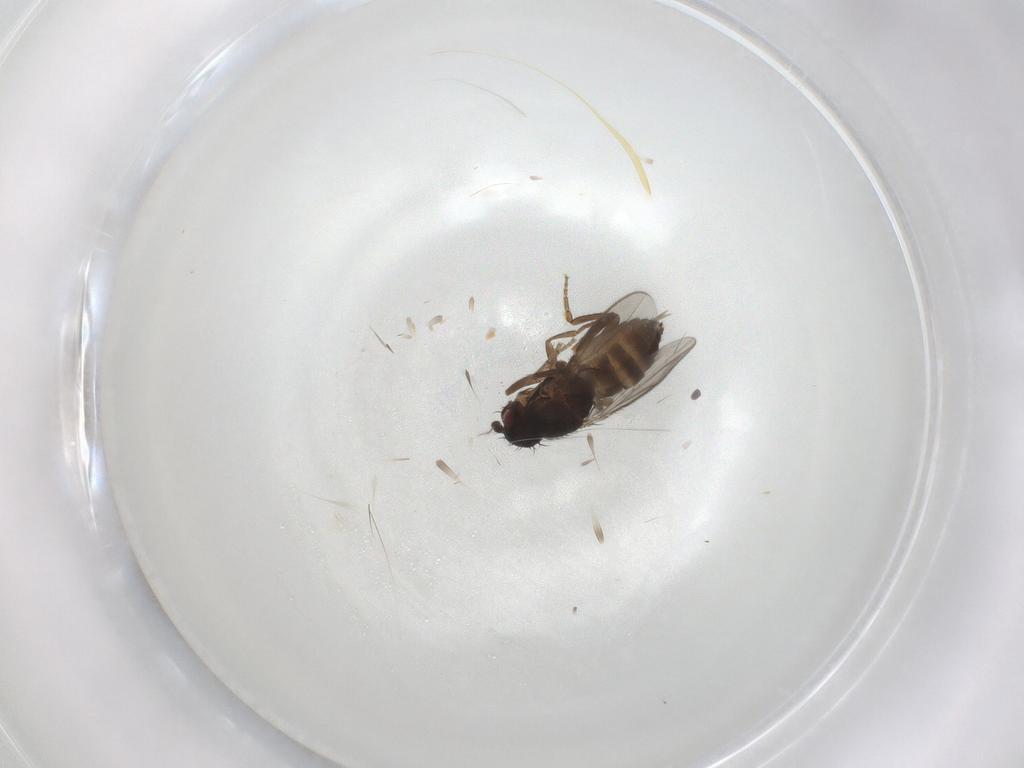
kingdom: Animalia
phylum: Arthropoda
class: Insecta
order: Diptera
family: Sphaeroceridae
